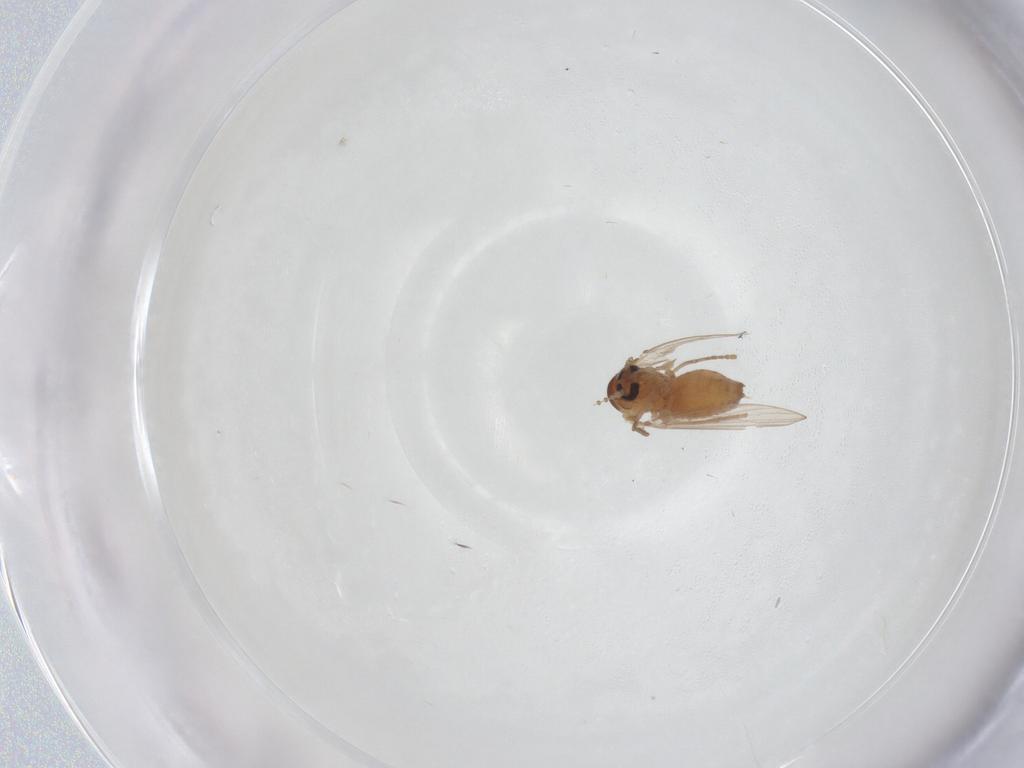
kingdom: Animalia
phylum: Arthropoda
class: Insecta
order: Diptera
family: Psychodidae
